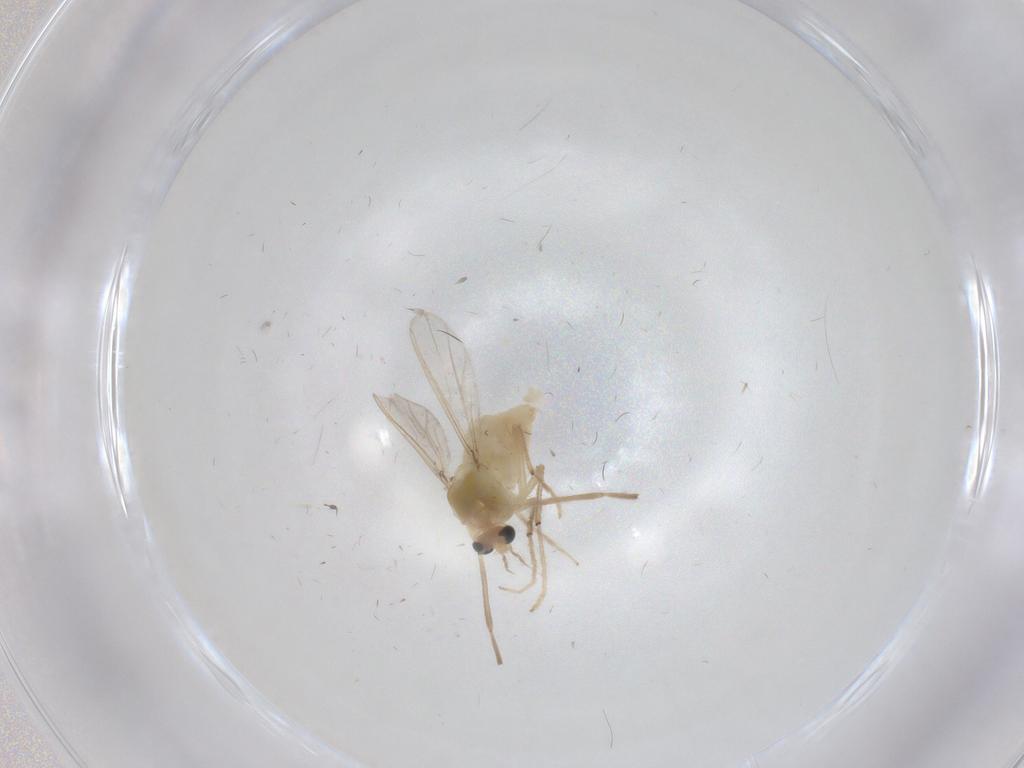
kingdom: Animalia
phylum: Arthropoda
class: Insecta
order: Diptera
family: Chironomidae
